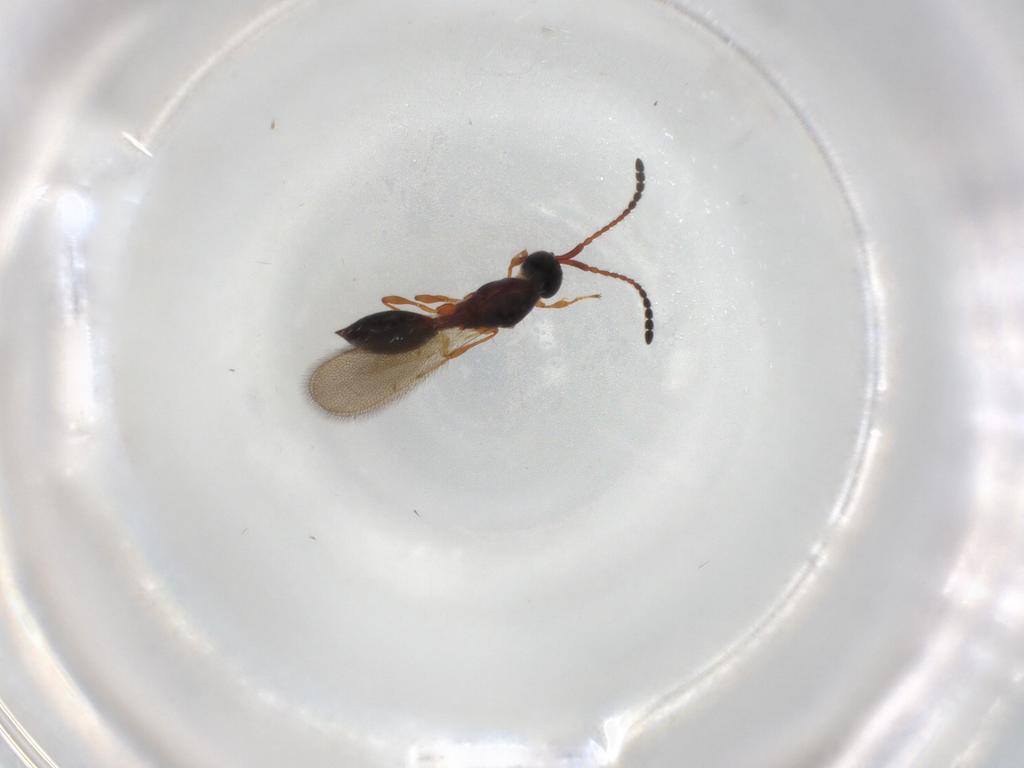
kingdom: Animalia
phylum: Arthropoda
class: Insecta
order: Hymenoptera
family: Diapriidae
